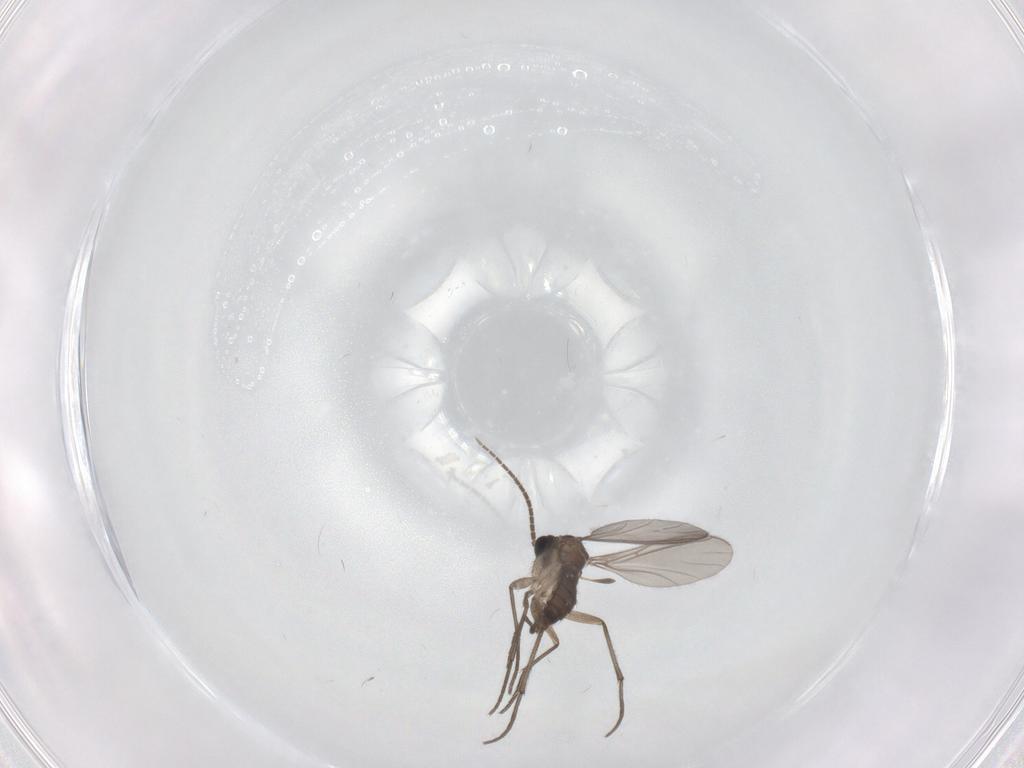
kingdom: Animalia
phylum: Arthropoda
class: Insecta
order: Diptera
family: Sciaridae
